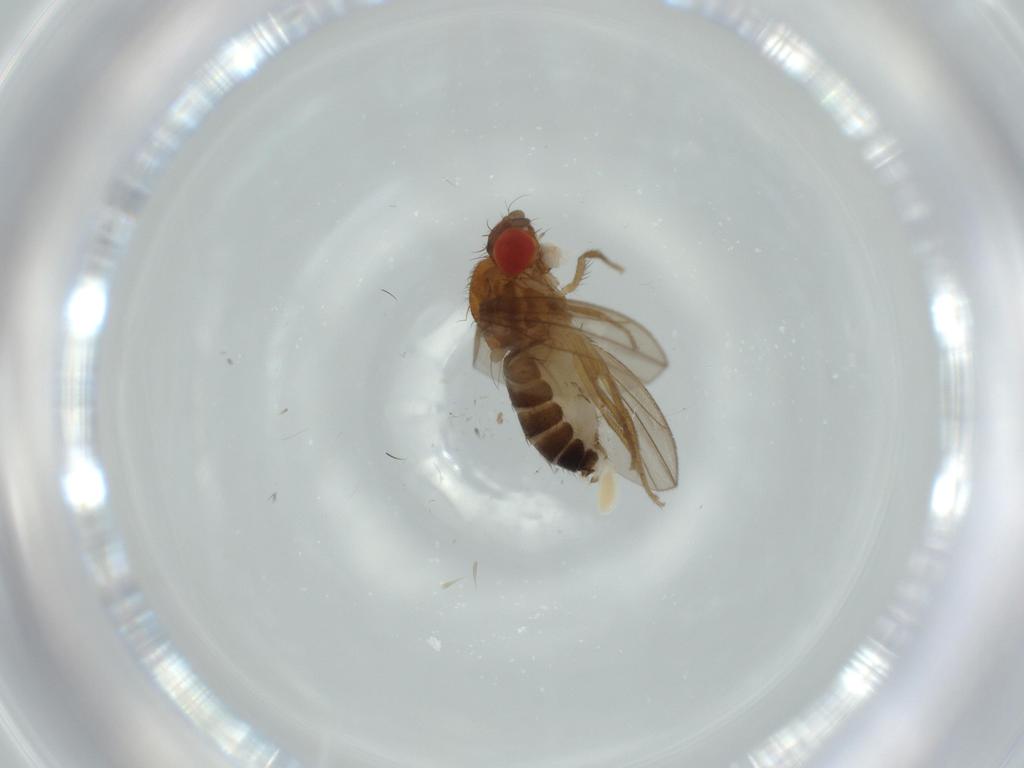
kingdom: Animalia
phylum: Arthropoda
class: Insecta
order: Diptera
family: Drosophilidae
